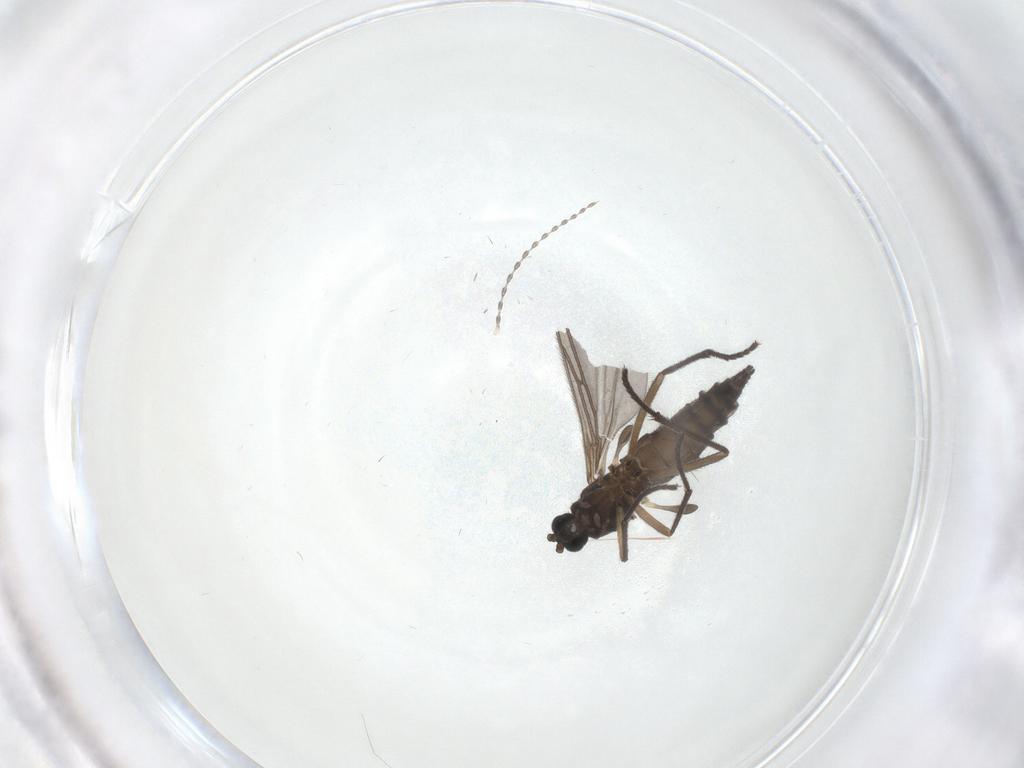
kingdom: Animalia
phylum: Arthropoda
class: Insecta
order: Diptera
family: Sciaridae
